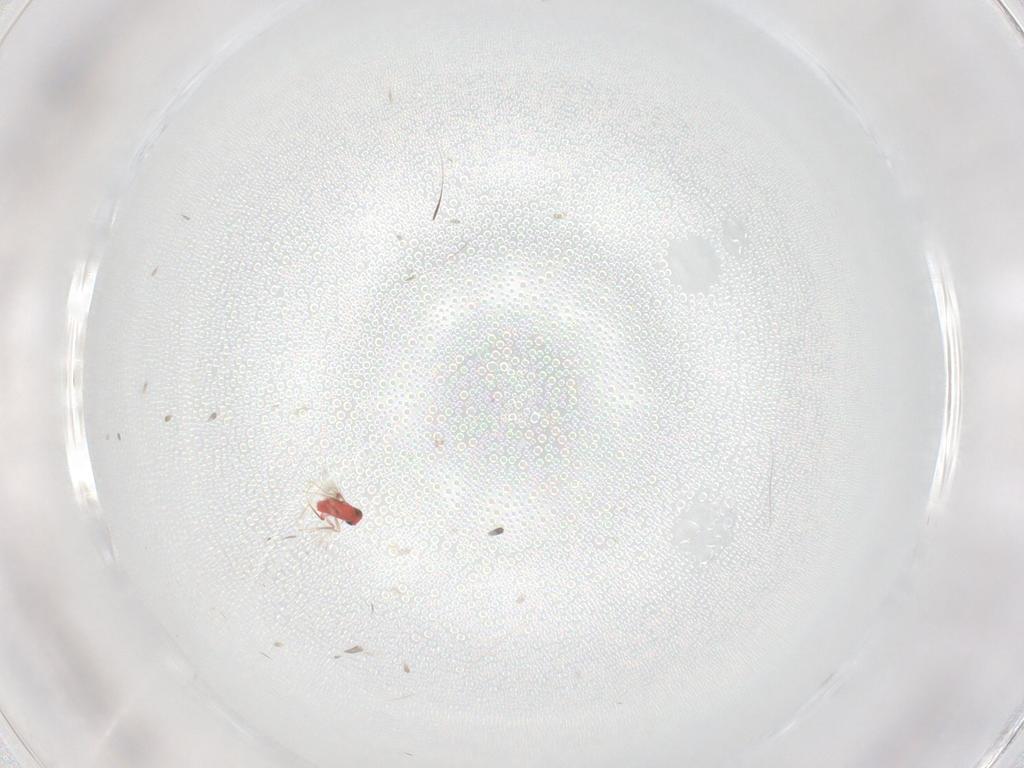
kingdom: Animalia
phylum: Arthropoda
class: Insecta
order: Hymenoptera
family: Trichogrammatidae
